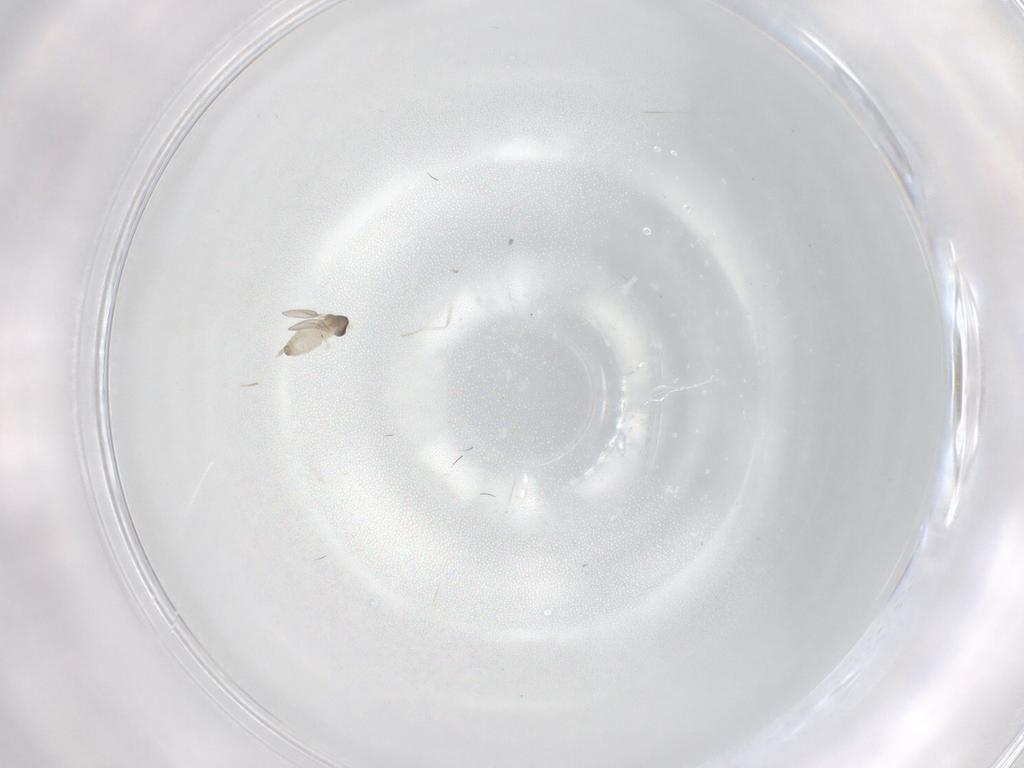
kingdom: Animalia
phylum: Arthropoda
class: Insecta
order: Diptera
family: Cecidomyiidae
